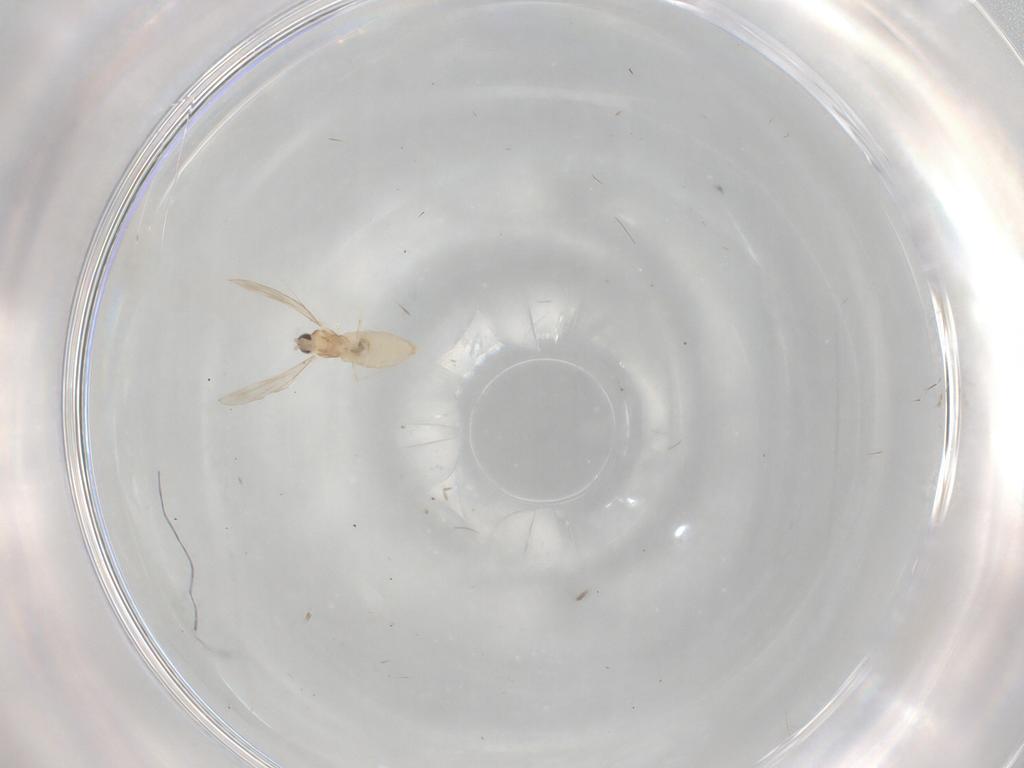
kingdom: Animalia
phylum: Arthropoda
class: Insecta
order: Diptera
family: Cecidomyiidae
